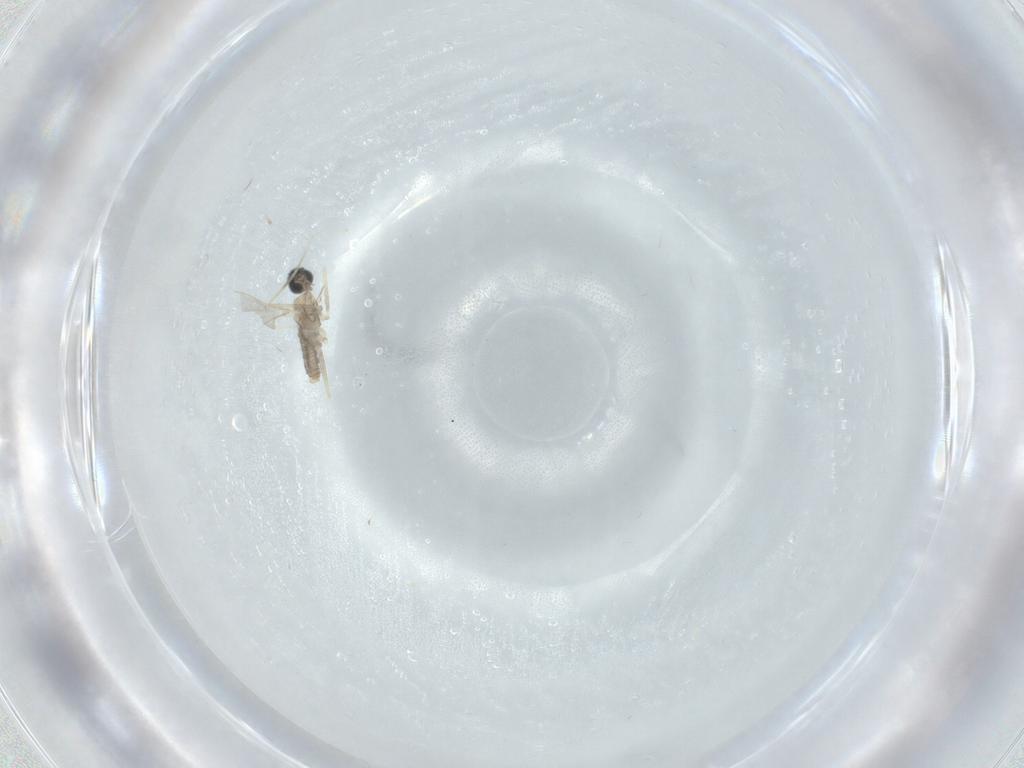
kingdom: Animalia
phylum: Arthropoda
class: Insecta
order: Diptera
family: Cecidomyiidae
